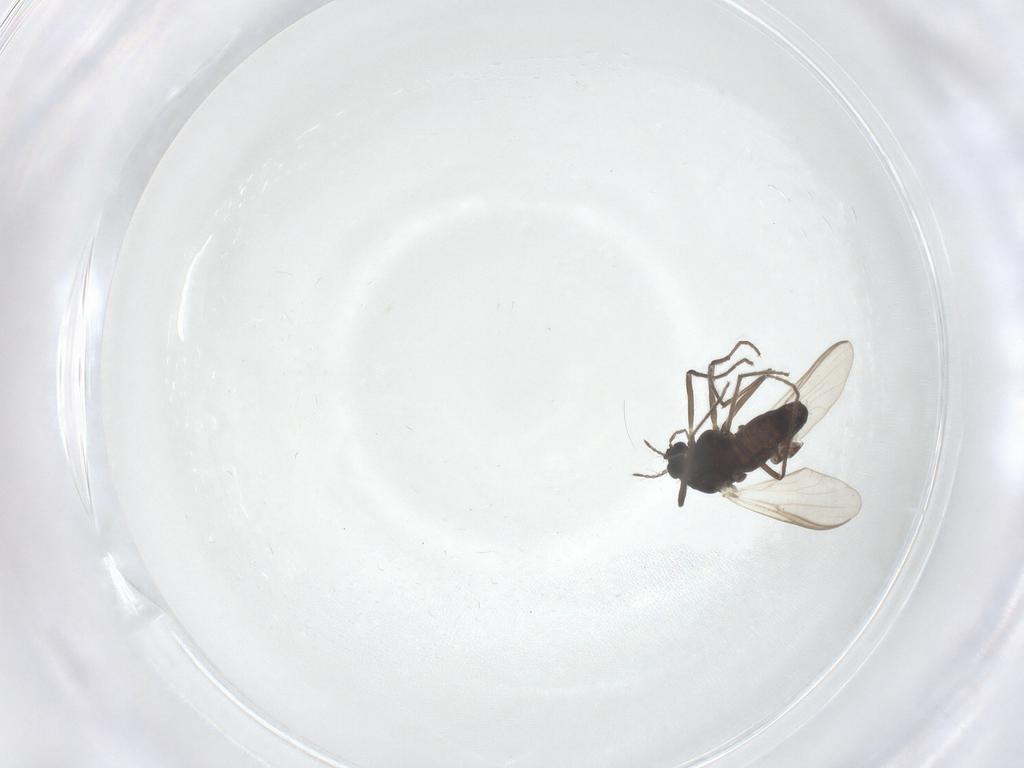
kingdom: Animalia
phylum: Arthropoda
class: Insecta
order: Diptera
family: Chironomidae
